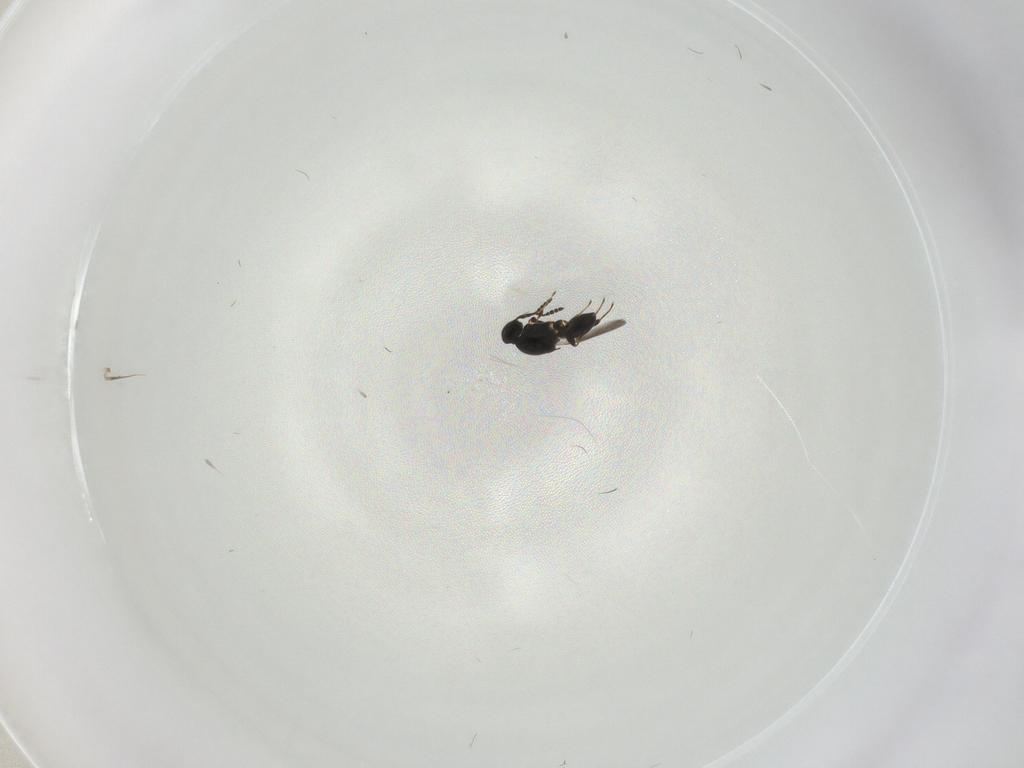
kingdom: Animalia
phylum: Arthropoda
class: Insecta
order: Hymenoptera
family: Platygastridae
